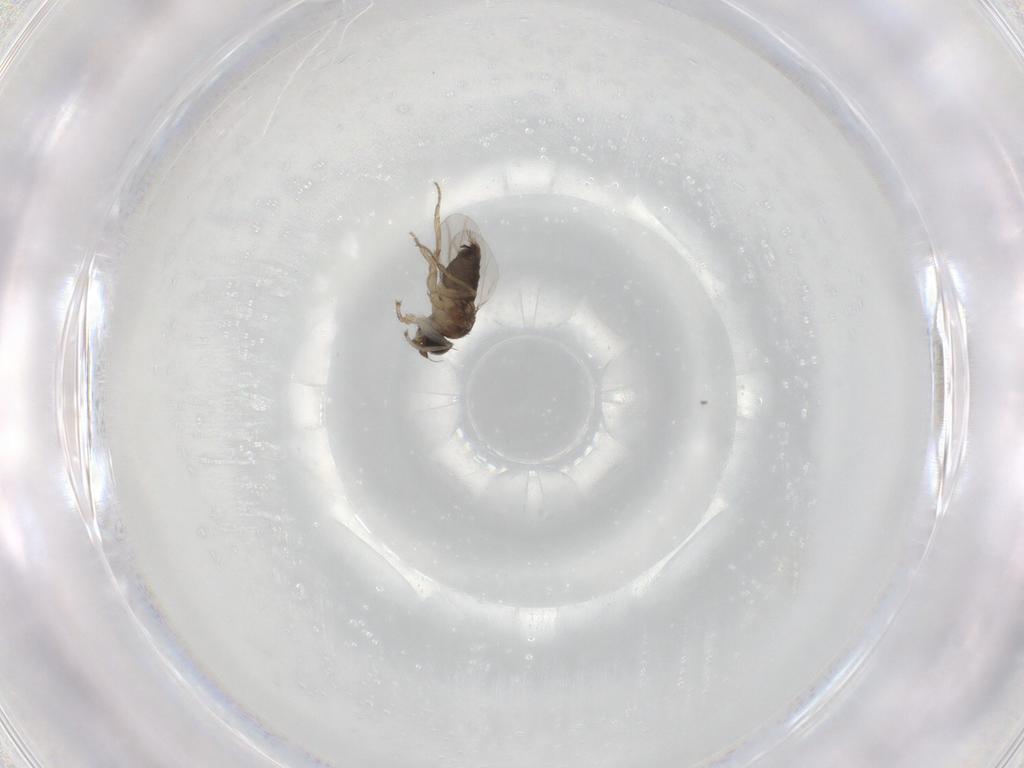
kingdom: Animalia
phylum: Arthropoda
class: Insecta
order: Diptera
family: Phoridae
